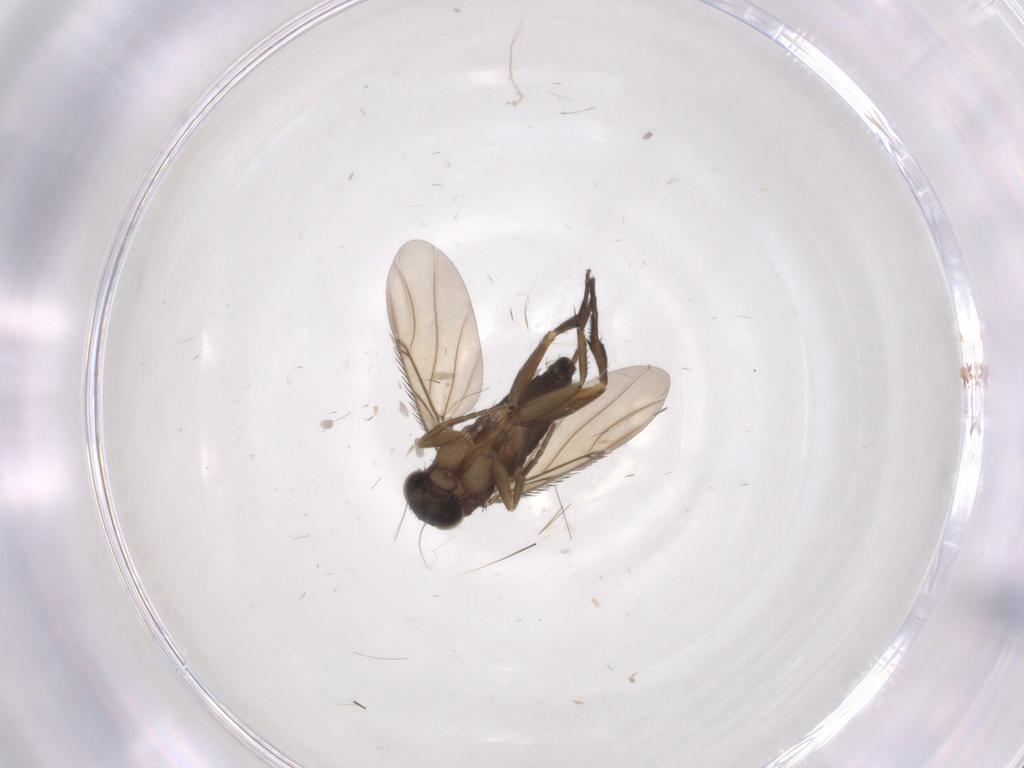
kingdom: Animalia
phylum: Arthropoda
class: Insecta
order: Diptera
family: Phoridae
